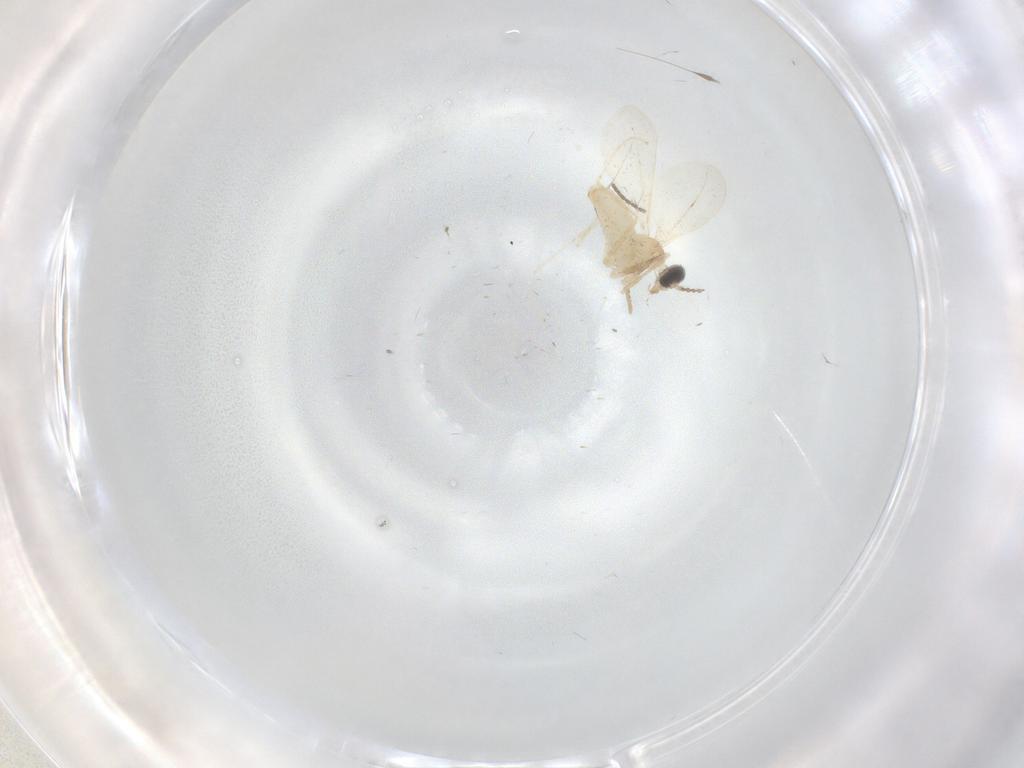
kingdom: Animalia
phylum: Arthropoda
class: Insecta
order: Diptera
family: Cecidomyiidae
